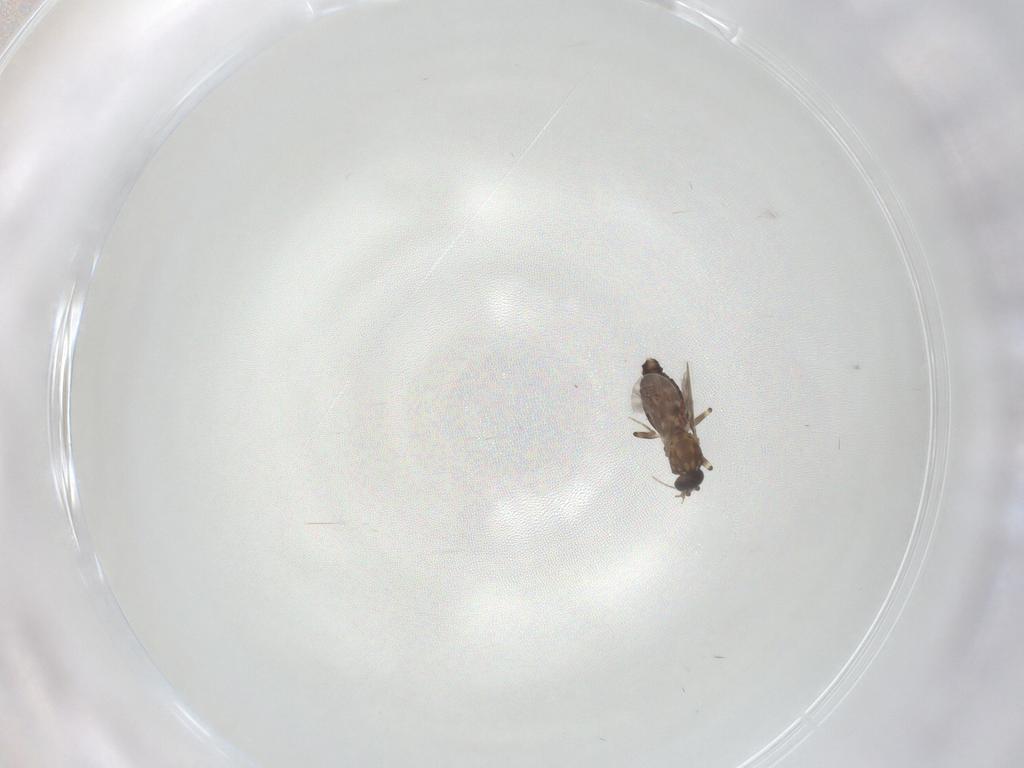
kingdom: Animalia
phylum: Arthropoda
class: Insecta
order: Diptera
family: Ceratopogonidae
